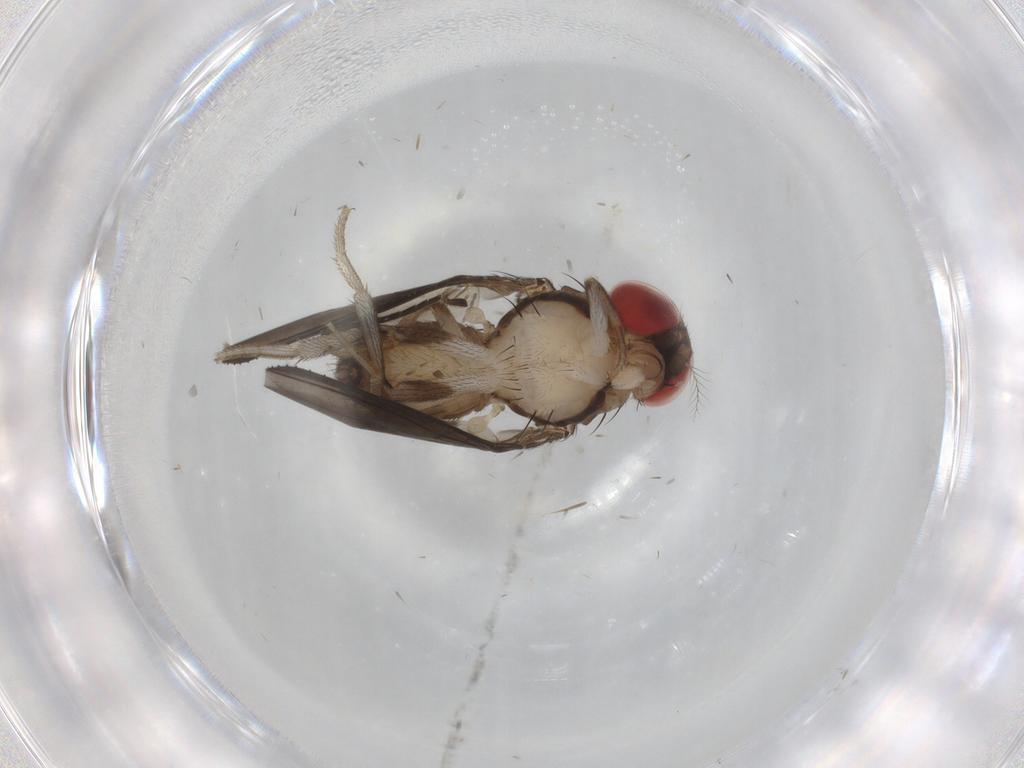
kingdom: Animalia
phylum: Arthropoda
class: Insecta
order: Diptera
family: Drosophilidae
